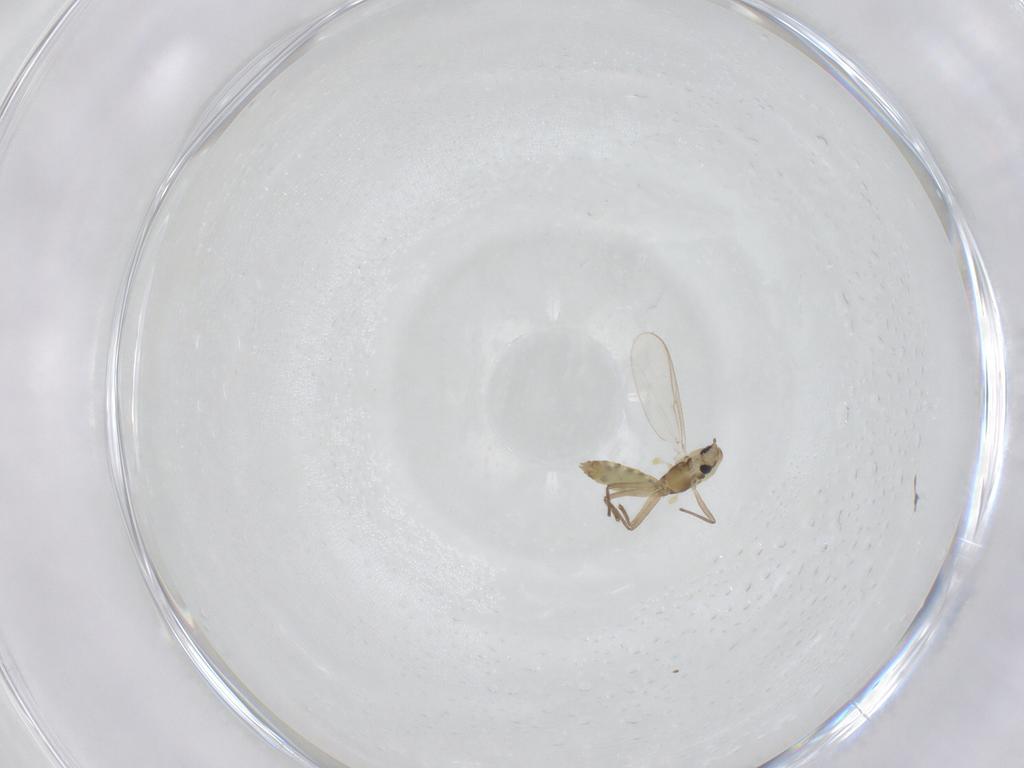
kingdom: Animalia
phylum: Arthropoda
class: Insecta
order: Diptera
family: Chironomidae
